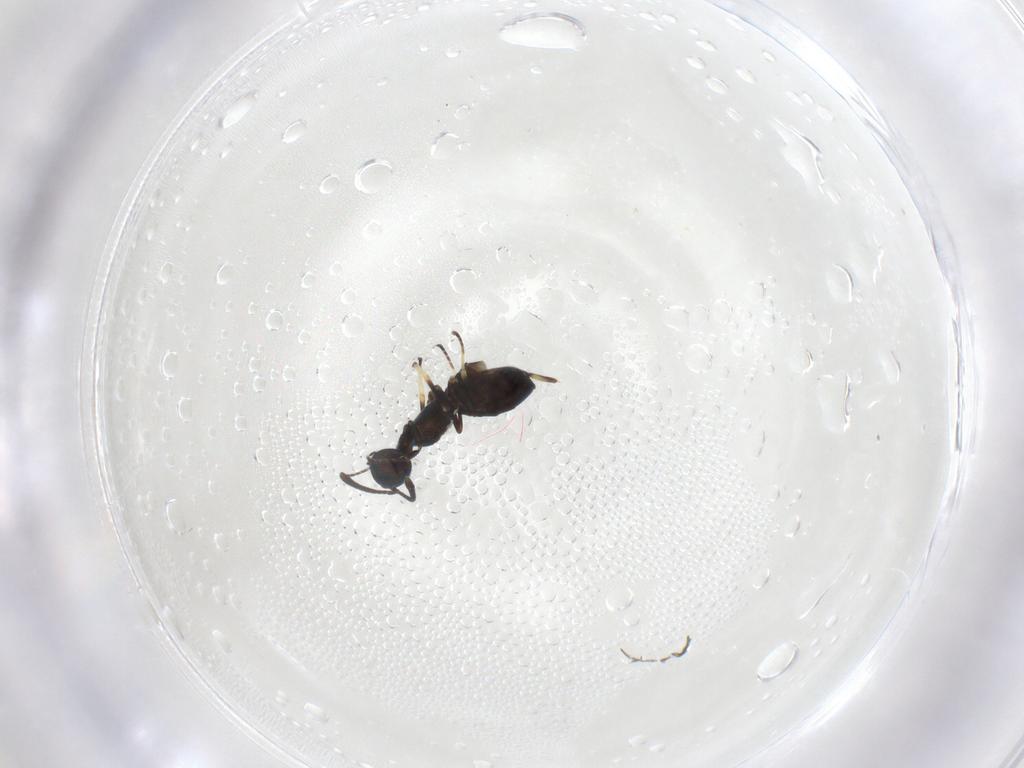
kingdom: Animalia
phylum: Arthropoda
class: Insecta
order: Hymenoptera
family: Eupelmidae
